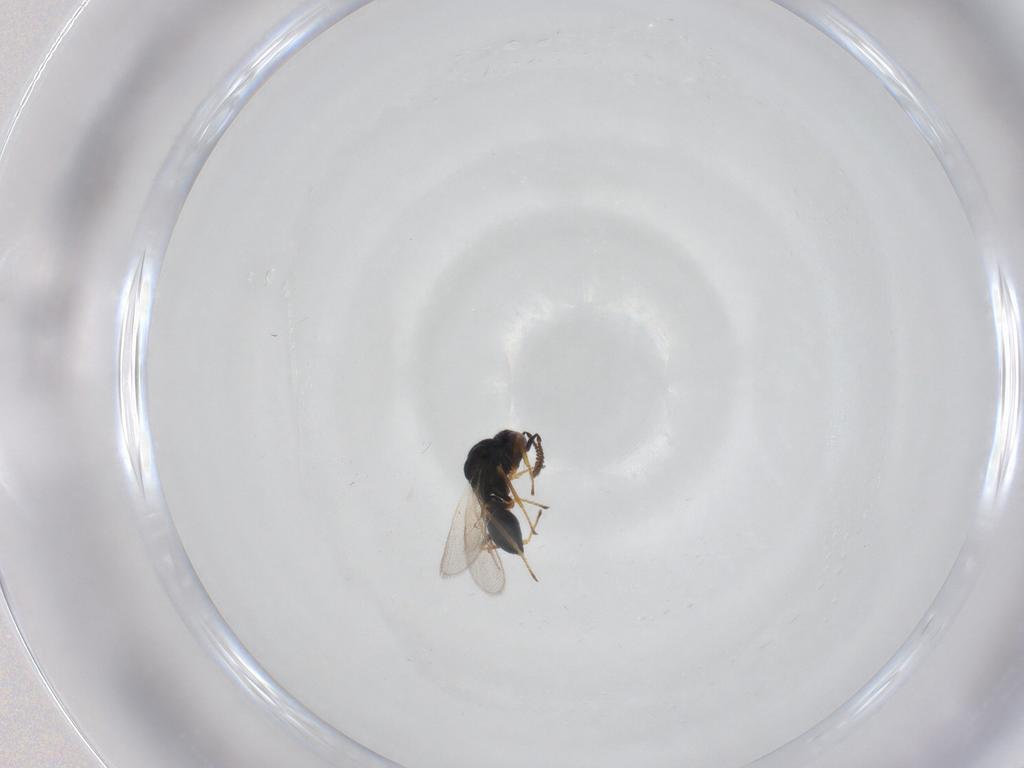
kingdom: Animalia
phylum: Arthropoda
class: Insecta
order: Hymenoptera
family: Chalcidoidea_incertae_sedis
